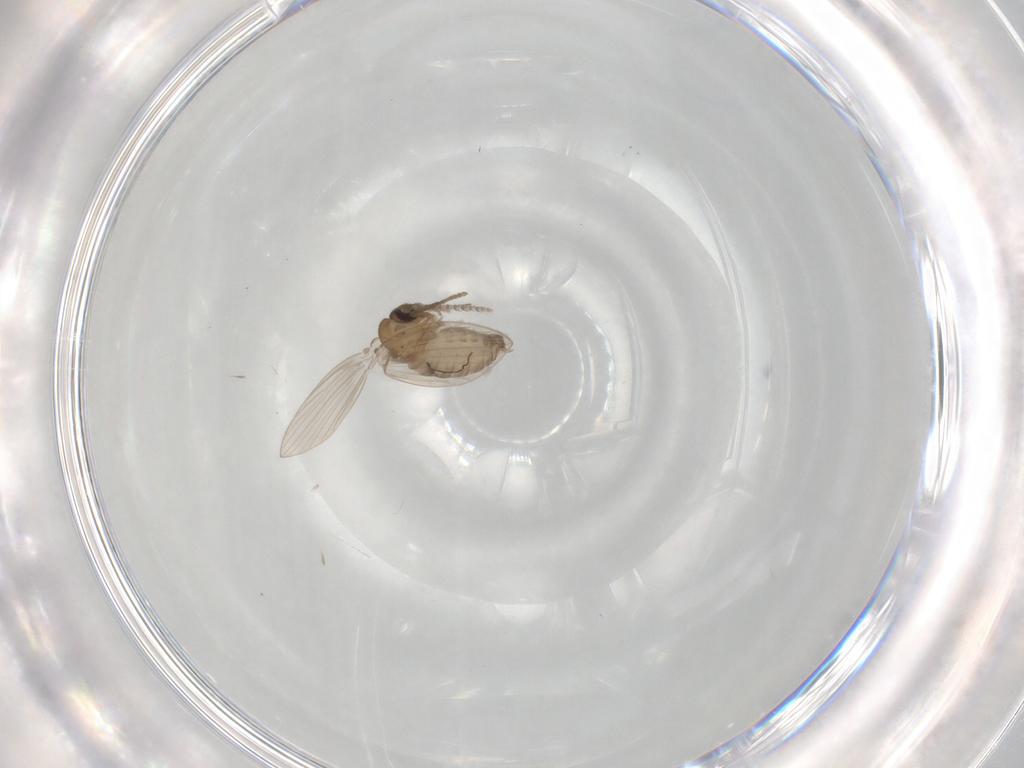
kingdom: Animalia
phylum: Arthropoda
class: Insecta
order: Diptera
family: Psychodidae
